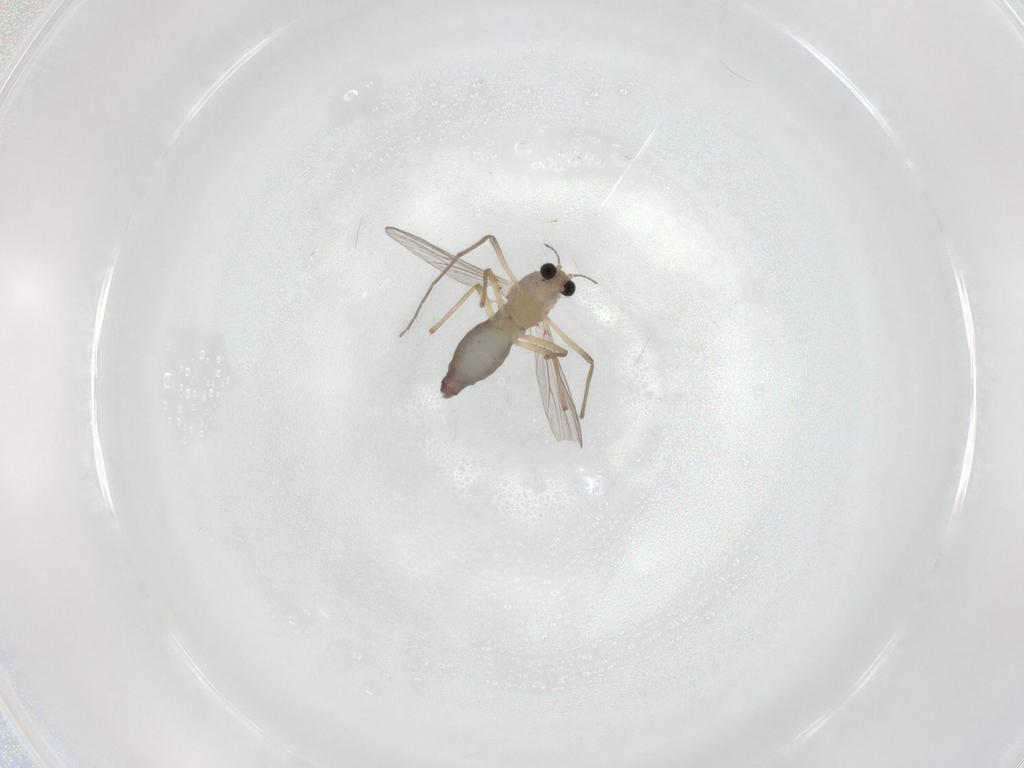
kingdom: Animalia
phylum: Arthropoda
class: Insecta
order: Diptera
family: Chironomidae
